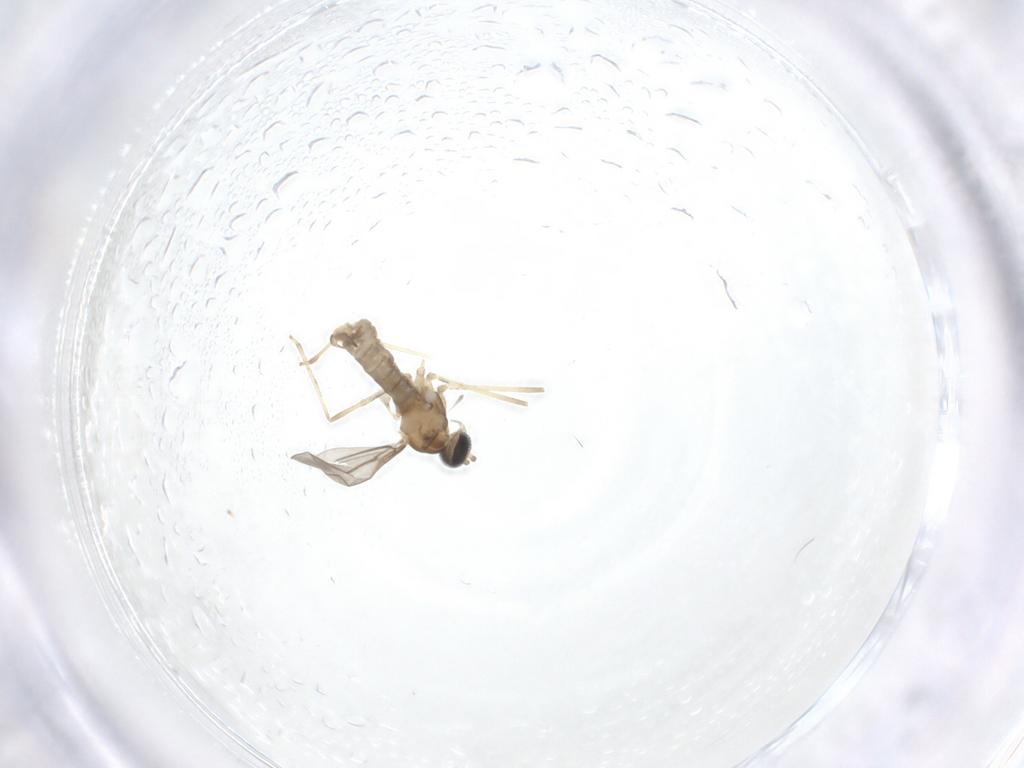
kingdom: Animalia
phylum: Arthropoda
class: Insecta
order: Diptera
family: Cecidomyiidae
